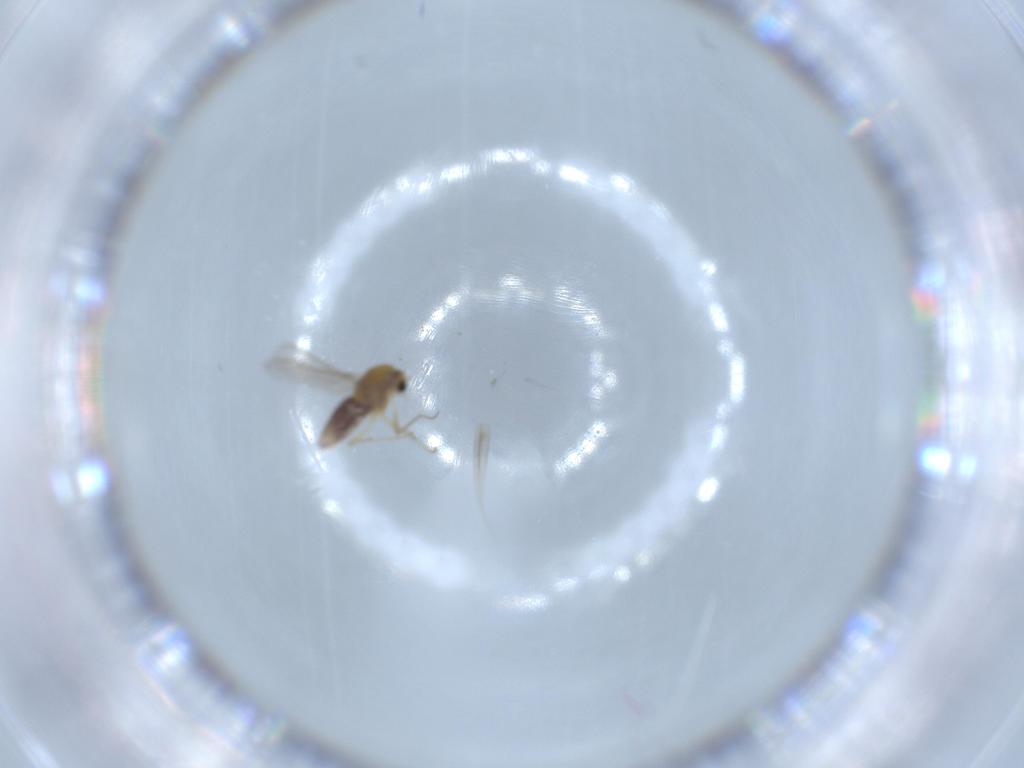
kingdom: Animalia
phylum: Arthropoda
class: Insecta
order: Diptera
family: Chironomidae
